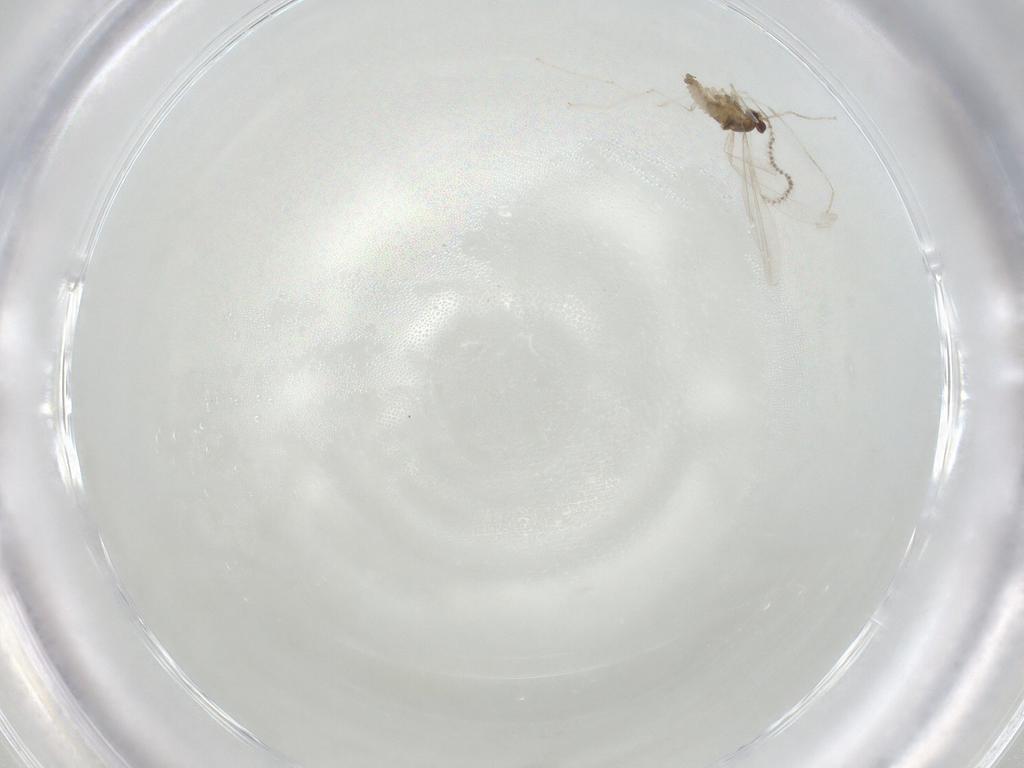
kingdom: Animalia
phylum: Arthropoda
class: Insecta
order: Diptera
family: Cecidomyiidae
